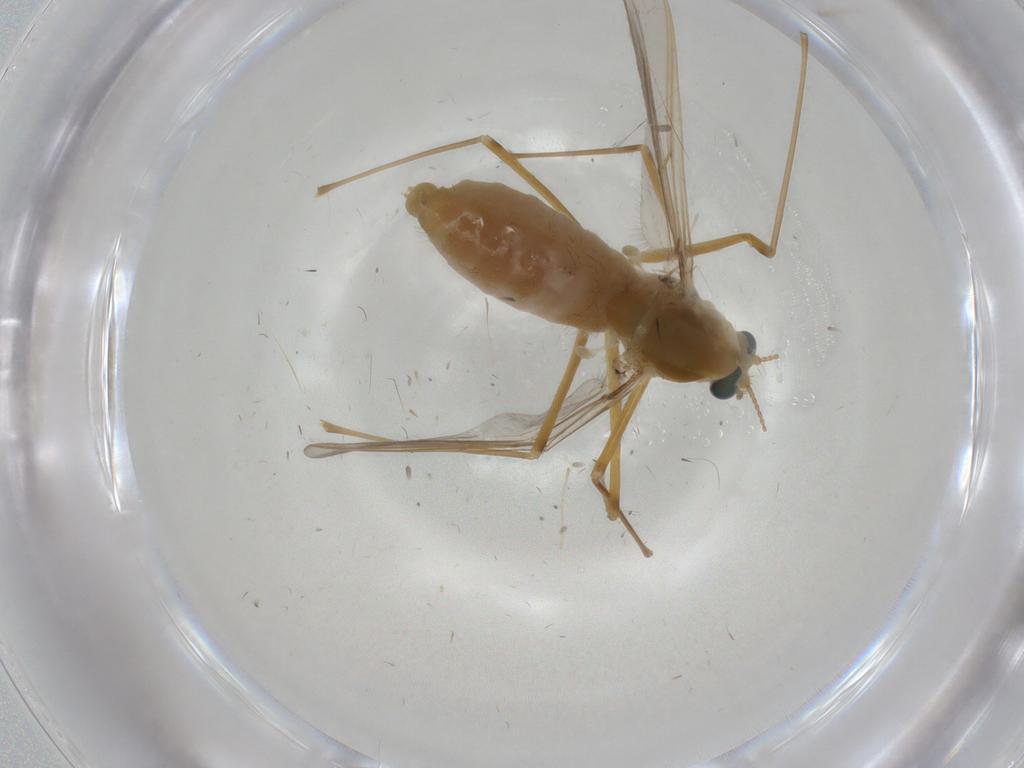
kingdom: Animalia
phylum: Arthropoda
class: Insecta
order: Diptera
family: Chironomidae
